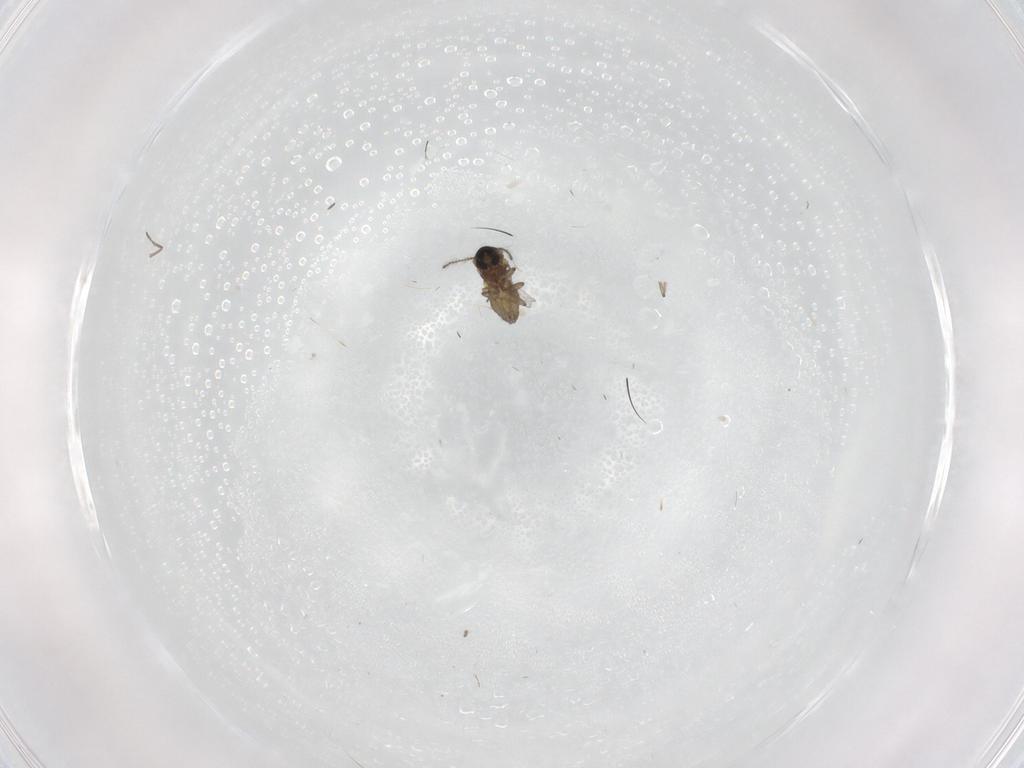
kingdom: Animalia
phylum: Arthropoda
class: Insecta
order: Diptera
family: Ceratopogonidae
